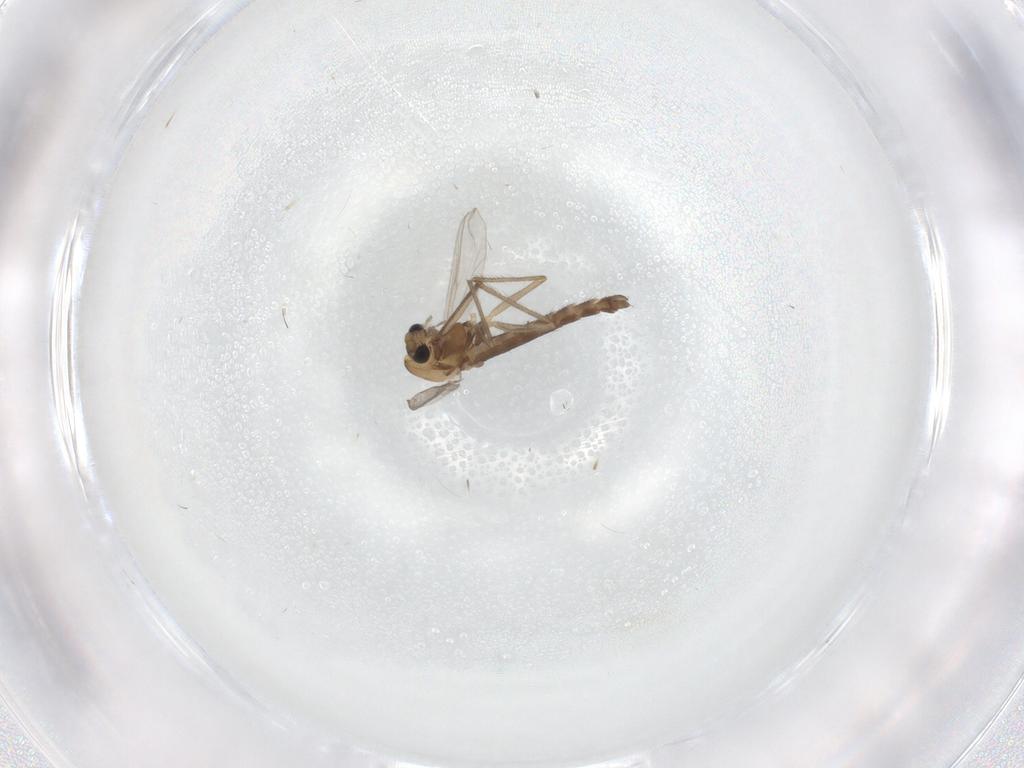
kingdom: Animalia
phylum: Arthropoda
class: Insecta
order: Diptera
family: Chironomidae
